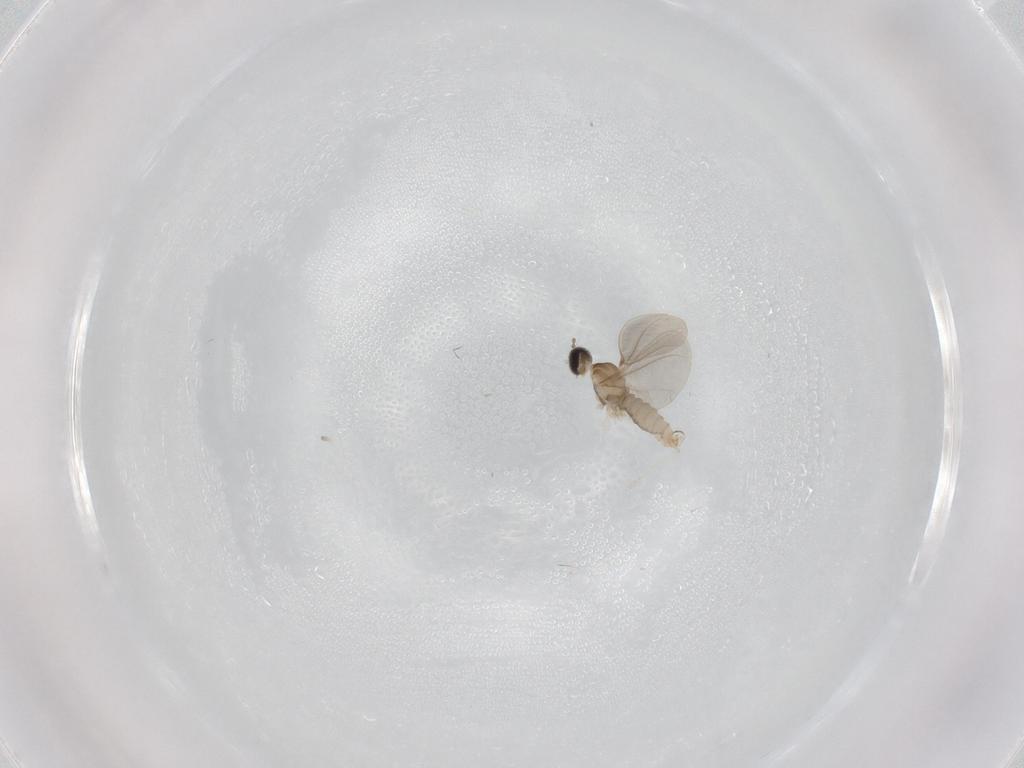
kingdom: Animalia
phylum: Arthropoda
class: Insecta
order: Diptera
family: Cecidomyiidae
